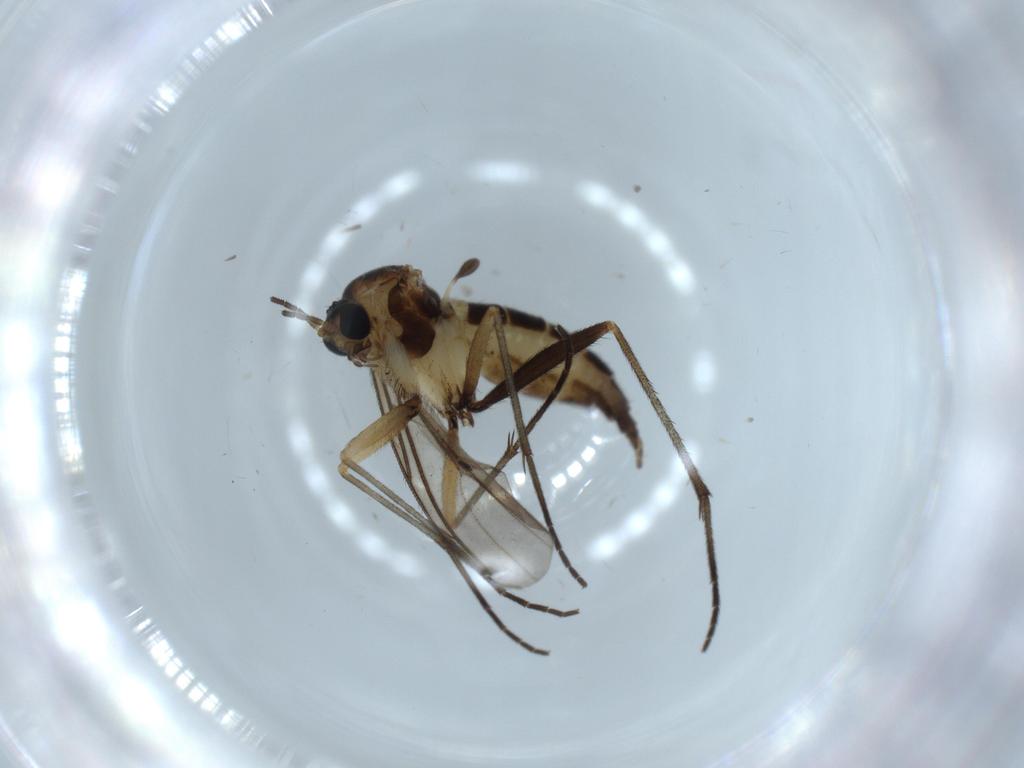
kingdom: Animalia
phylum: Arthropoda
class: Insecta
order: Diptera
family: Sciaridae
